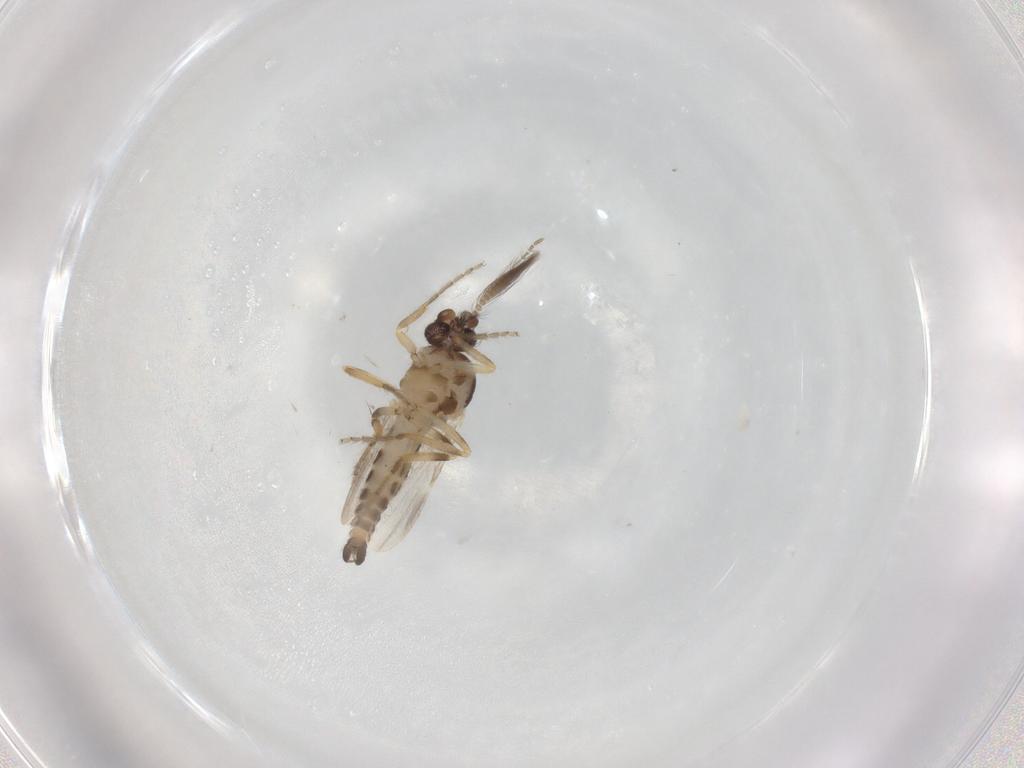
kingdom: Animalia
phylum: Arthropoda
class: Insecta
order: Diptera
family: Ceratopogonidae
